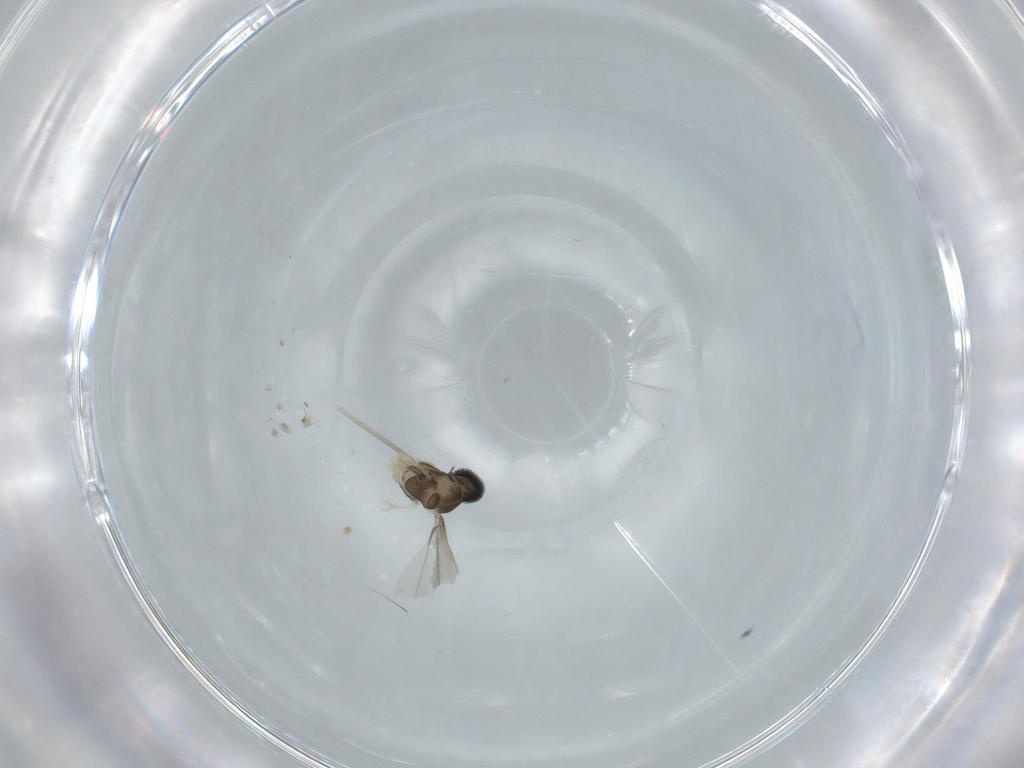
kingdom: Animalia
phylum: Arthropoda
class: Insecta
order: Diptera
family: Cecidomyiidae
